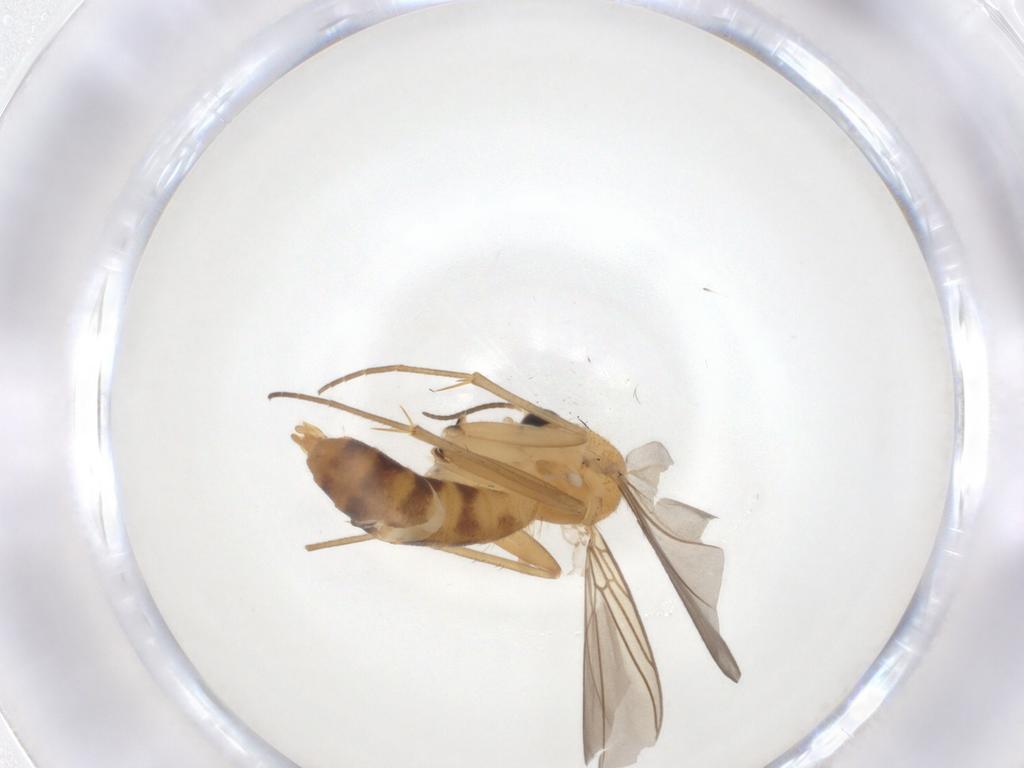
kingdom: Animalia
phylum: Arthropoda
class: Insecta
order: Diptera
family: Mycetophilidae
